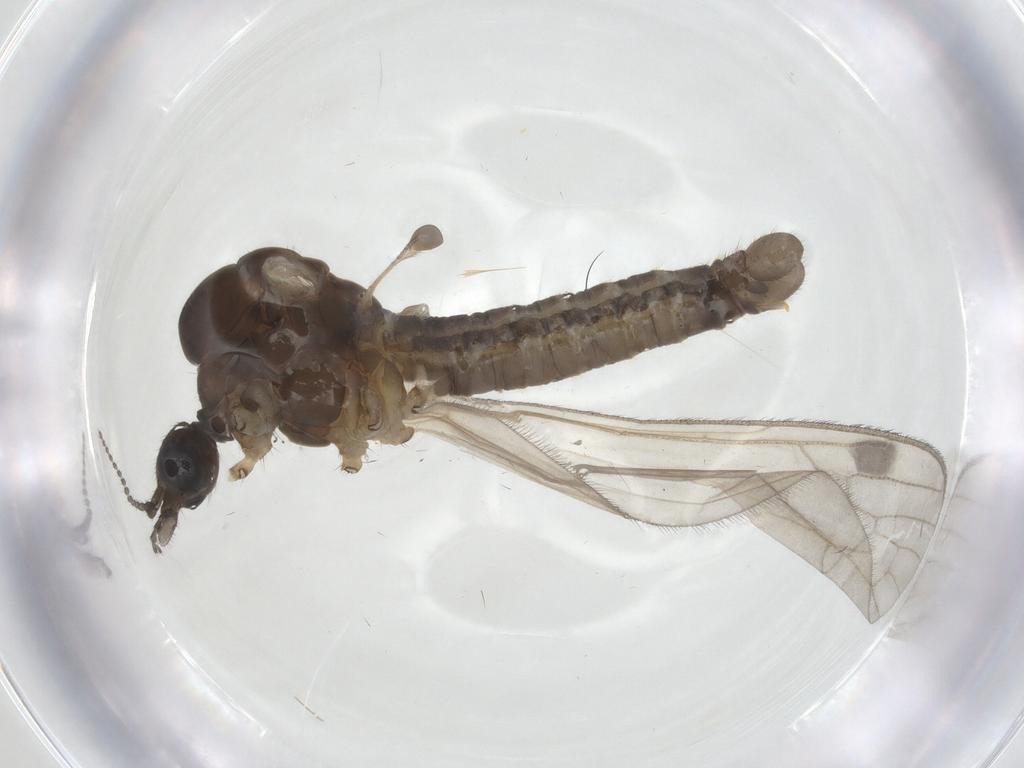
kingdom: Animalia
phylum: Arthropoda
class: Insecta
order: Diptera
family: Limoniidae
